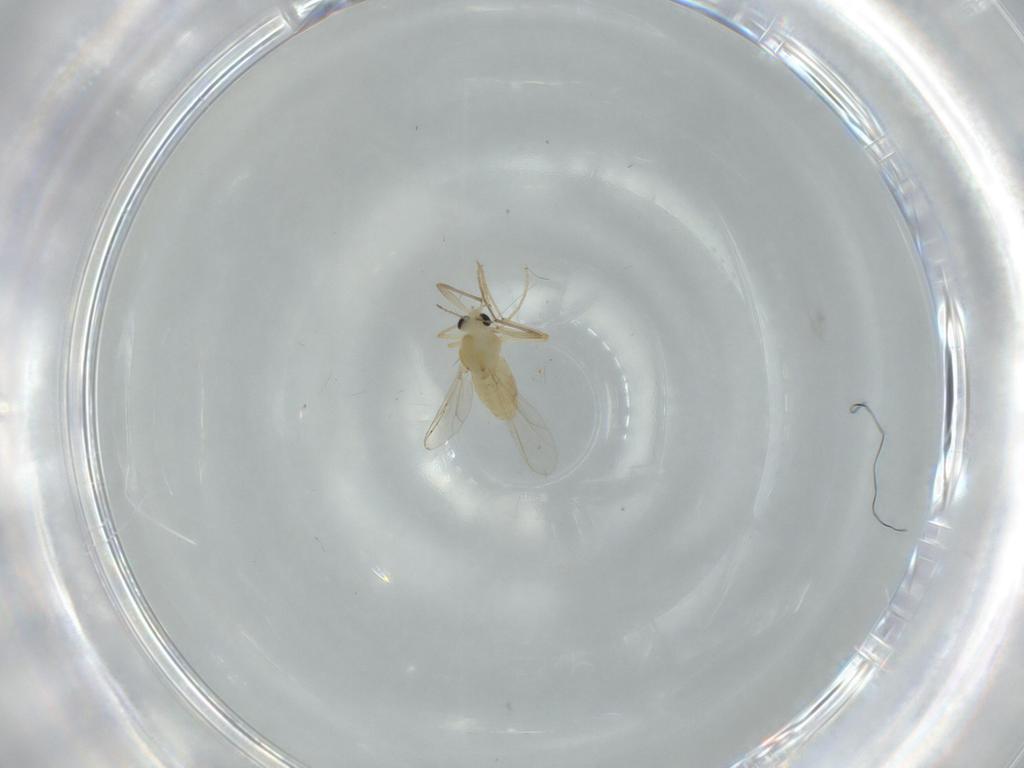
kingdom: Animalia
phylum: Arthropoda
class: Insecta
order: Diptera
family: Chironomidae
